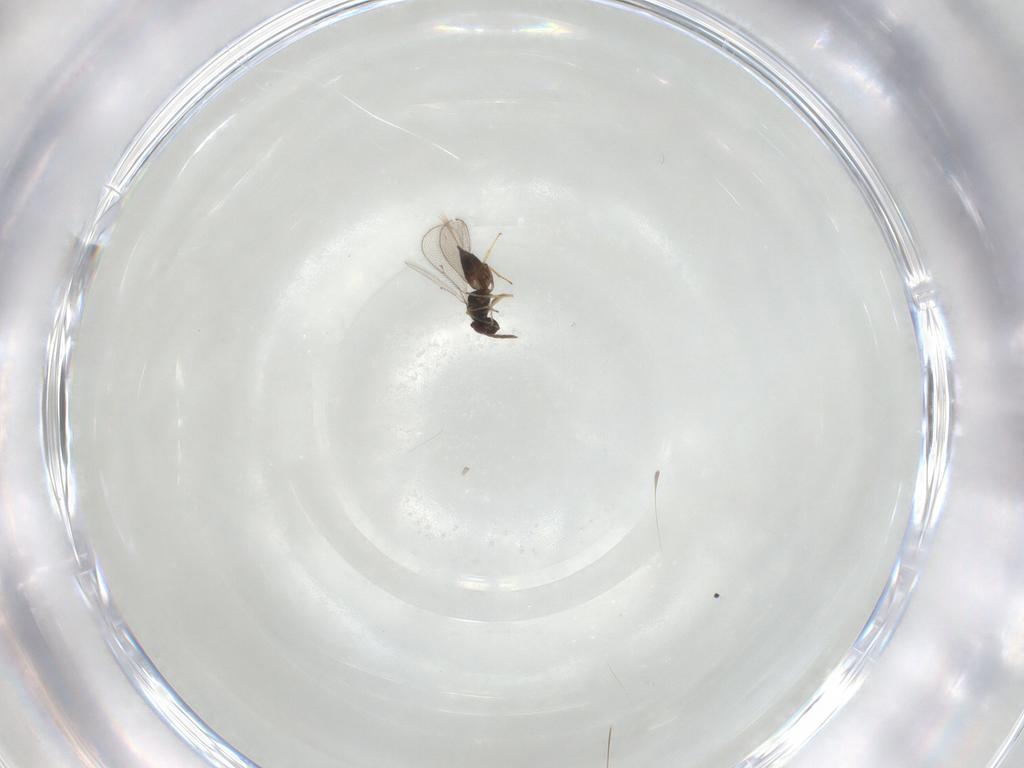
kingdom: Animalia
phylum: Arthropoda
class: Insecta
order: Hymenoptera
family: Eulophidae
